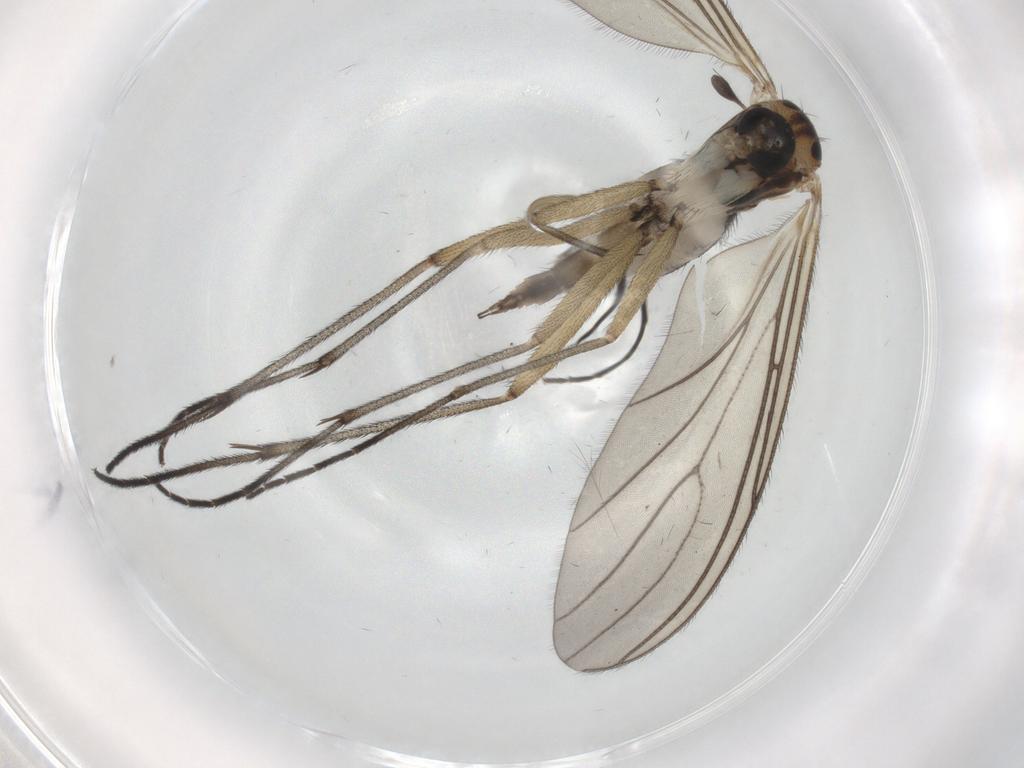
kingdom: Animalia
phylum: Arthropoda
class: Insecta
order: Diptera
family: Sciaridae
